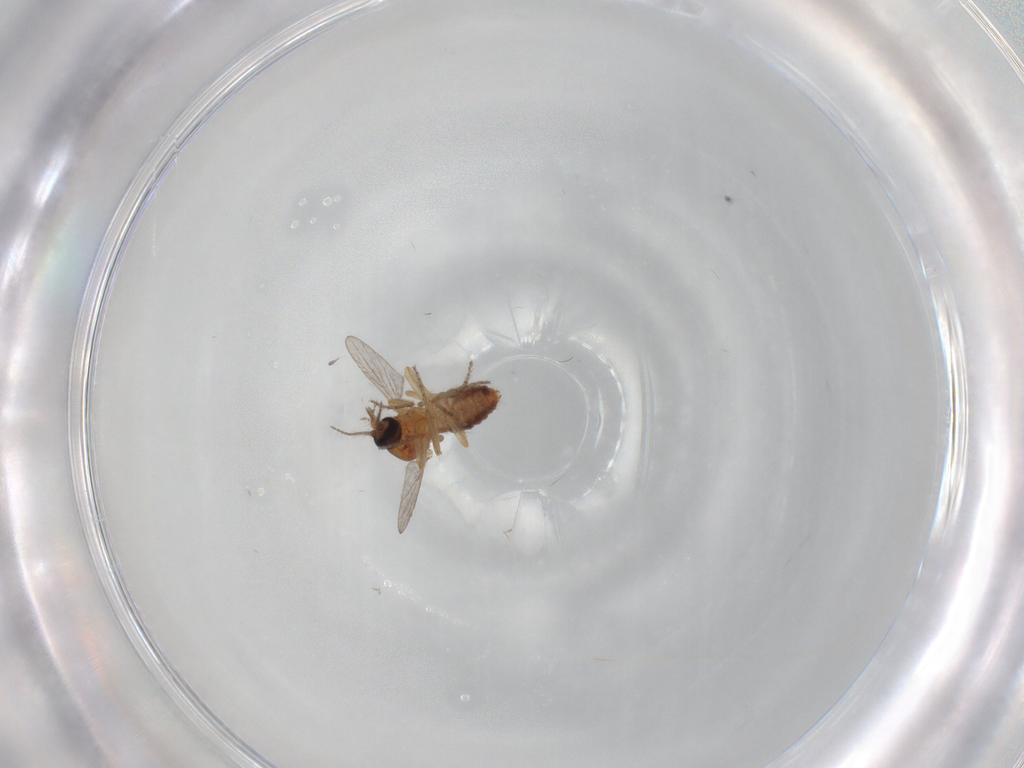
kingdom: Animalia
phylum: Arthropoda
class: Insecta
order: Diptera
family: Ceratopogonidae
